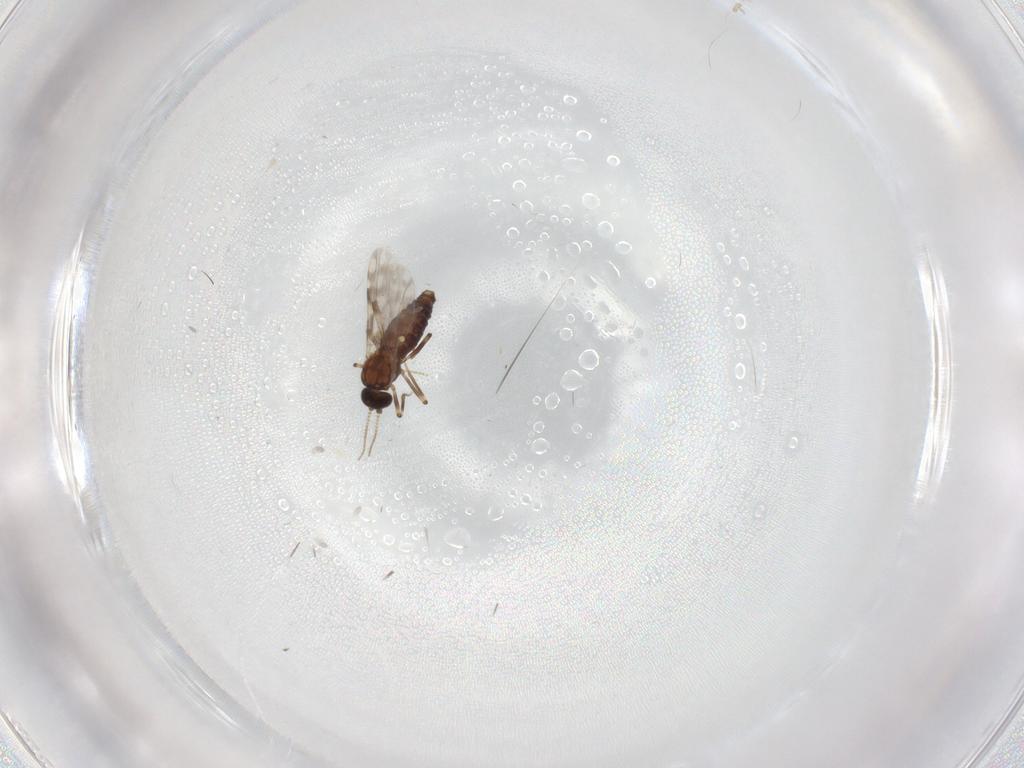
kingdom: Animalia
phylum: Arthropoda
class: Insecta
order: Diptera
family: Ceratopogonidae
